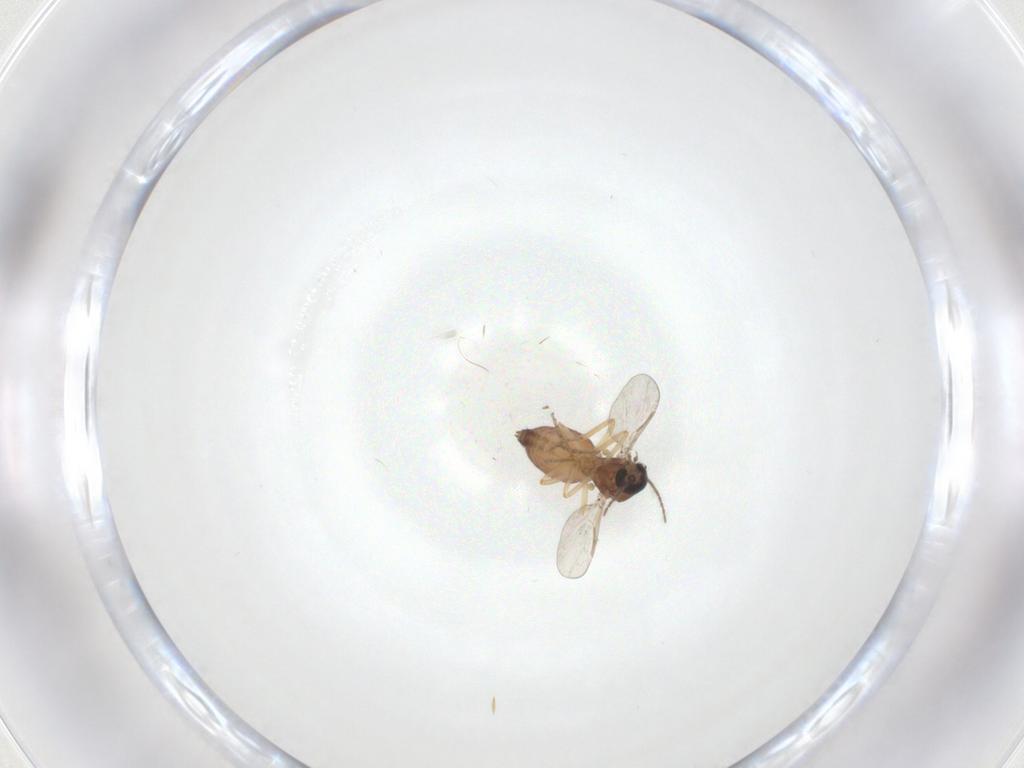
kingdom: Animalia
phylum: Arthropoda
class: Insecta
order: Diptera
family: Ceratopogonidae
